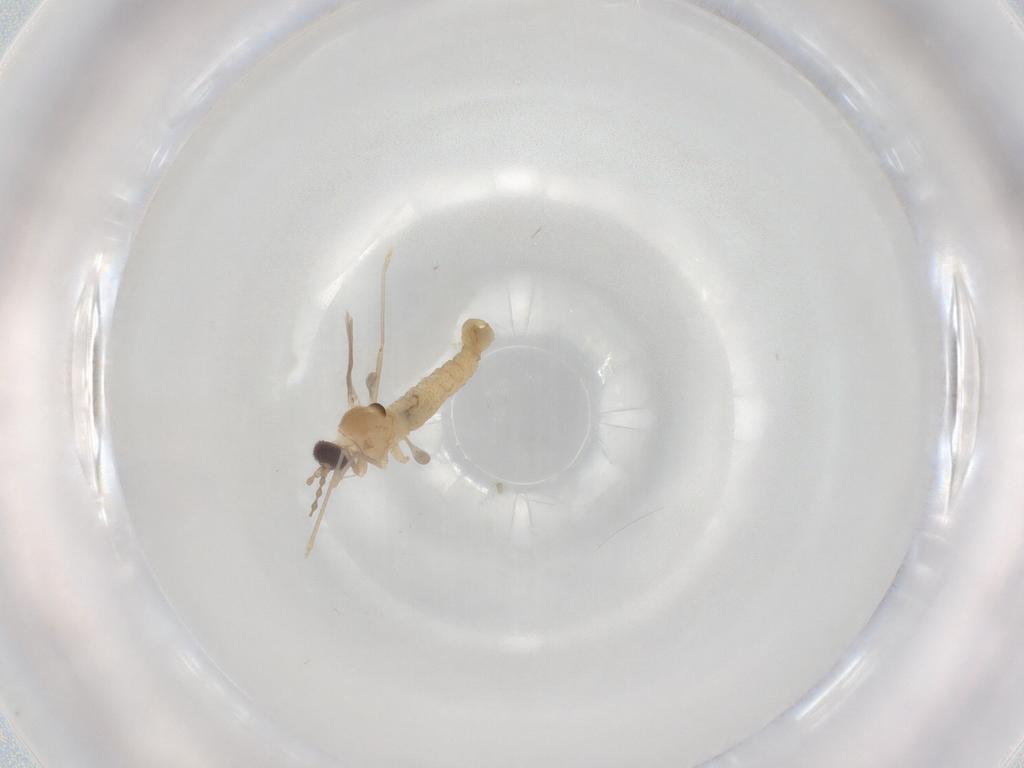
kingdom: Animalia
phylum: Arthropoda
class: Insecta
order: Diptera
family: Cecidomyiidae
